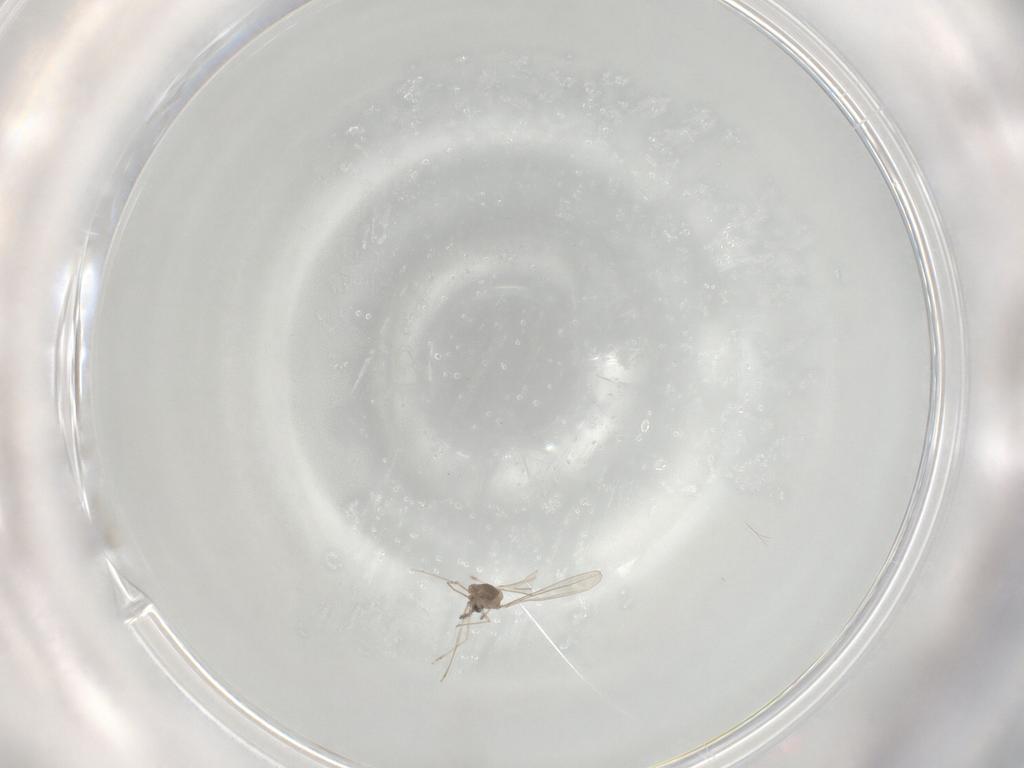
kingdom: Animalia
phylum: Arthropoda
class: Insecta
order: Diptera
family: Cecidomyiidae
